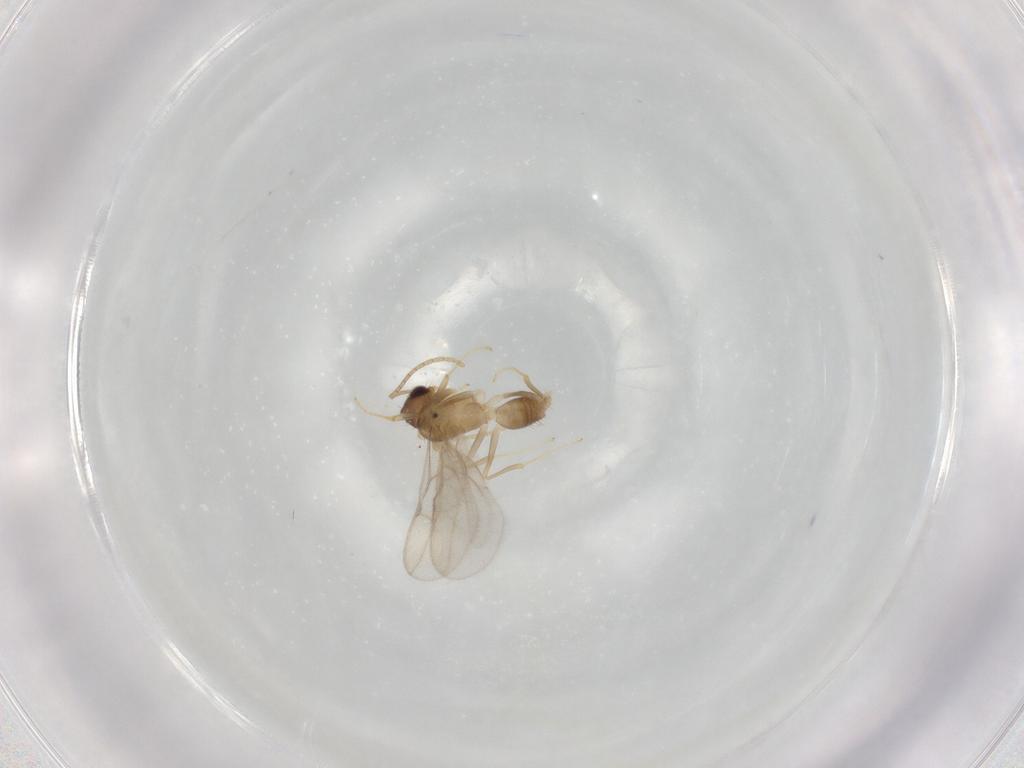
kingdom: Animalia
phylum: Arthropoda
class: Insecta
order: Hymenoptera
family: Formicidae
